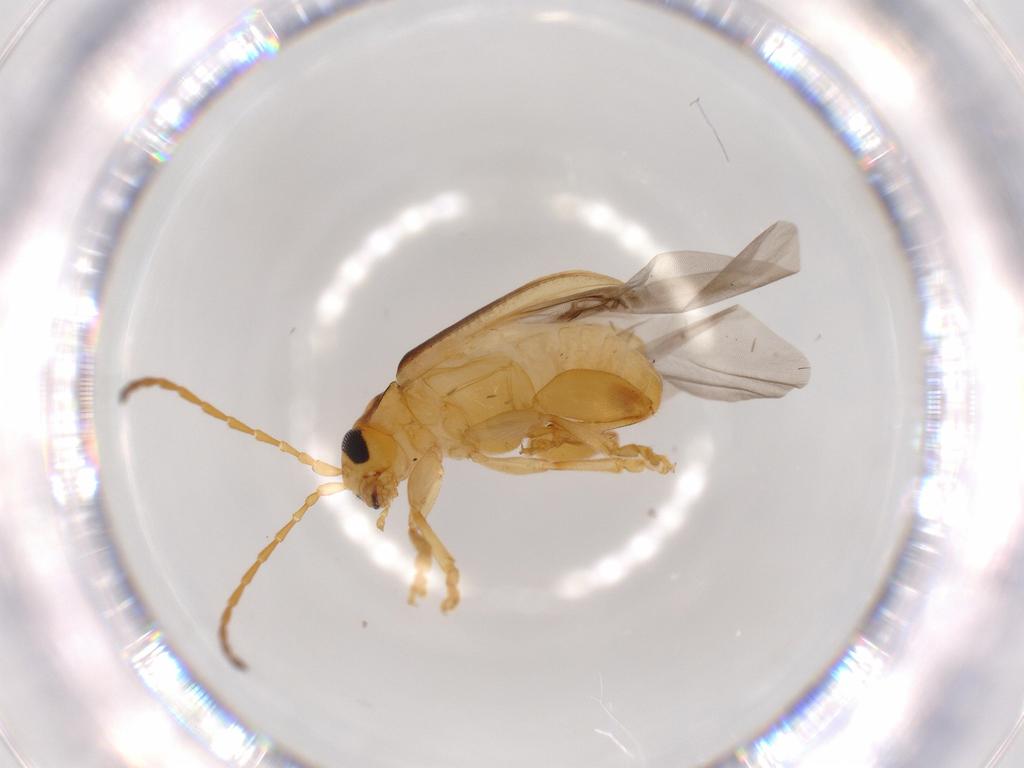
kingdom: Animalia
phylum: Arthropoda
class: Insecta
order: Coleoptera
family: Chrysomelidae
